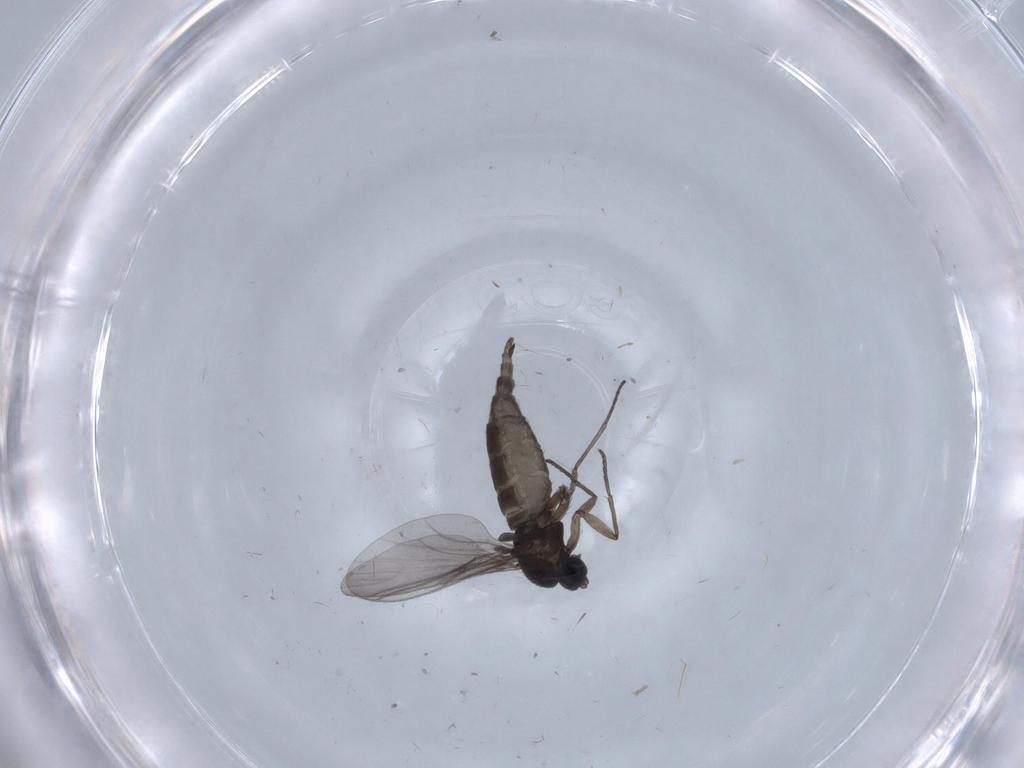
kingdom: Animalia
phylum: Arthropoda
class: Insecta
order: Diptera
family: Chironomidae
